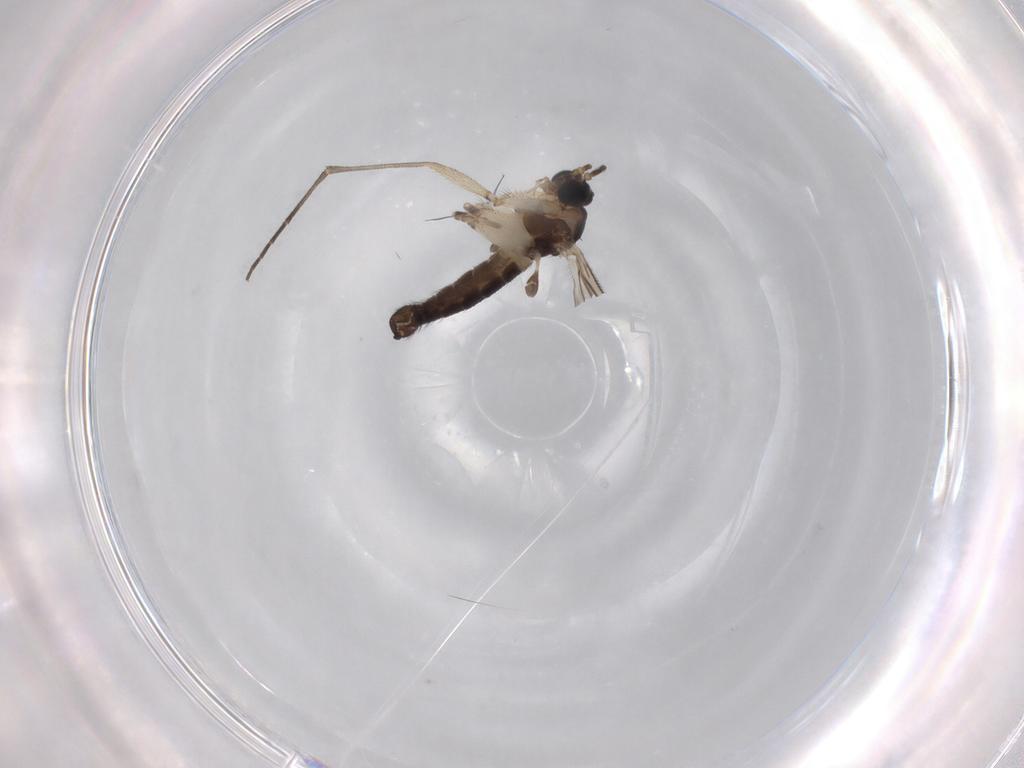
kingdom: Animalia
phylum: Arthropoda
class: Insecta
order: Diptera
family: Sciaridae
